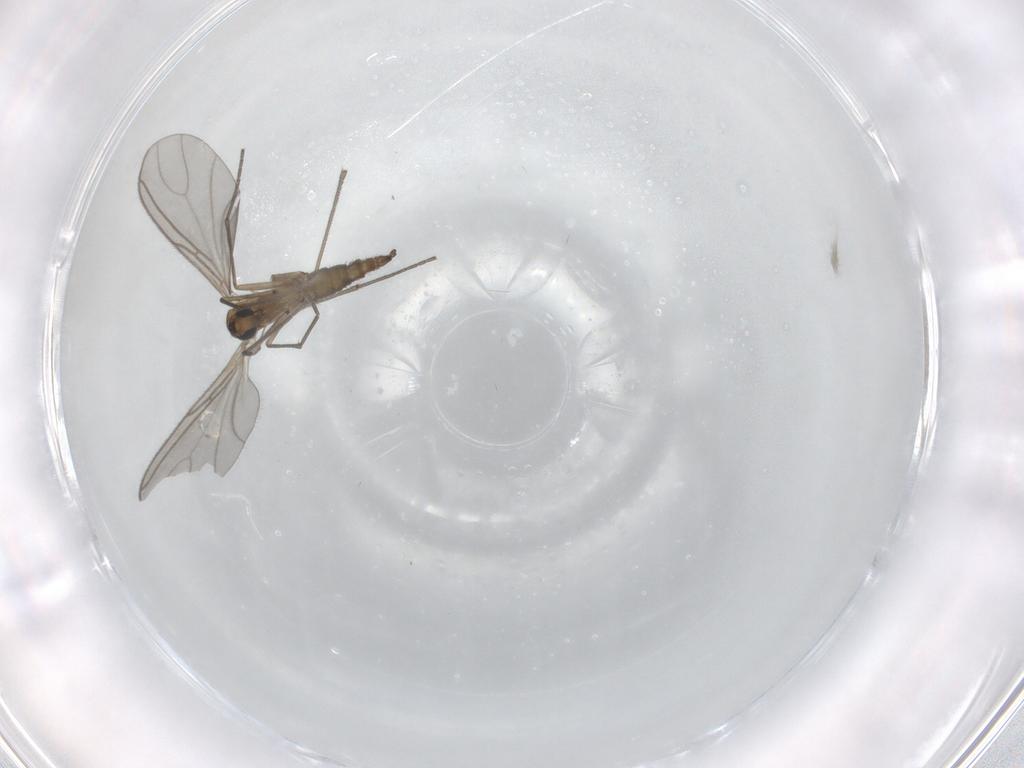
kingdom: Animalia
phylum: Arthropoda
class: Insecta
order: Diptera
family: Sciaridae
